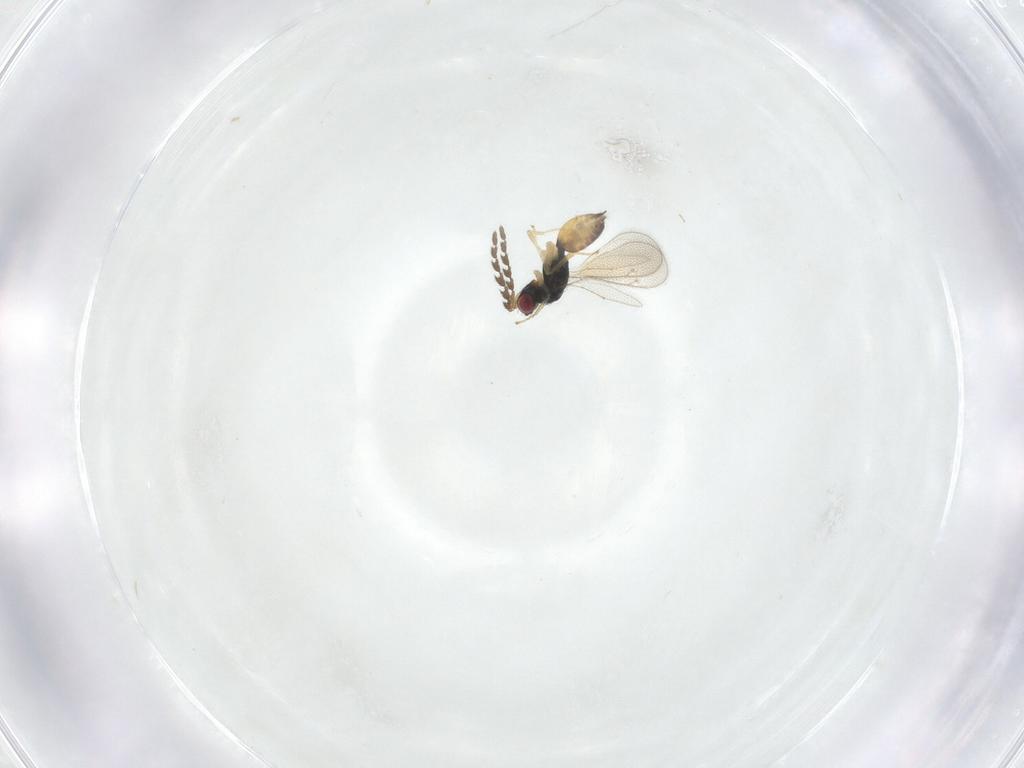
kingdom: Animalia
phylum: Arthropoda
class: Insecta
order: Hymenoptera
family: Eulophidae
